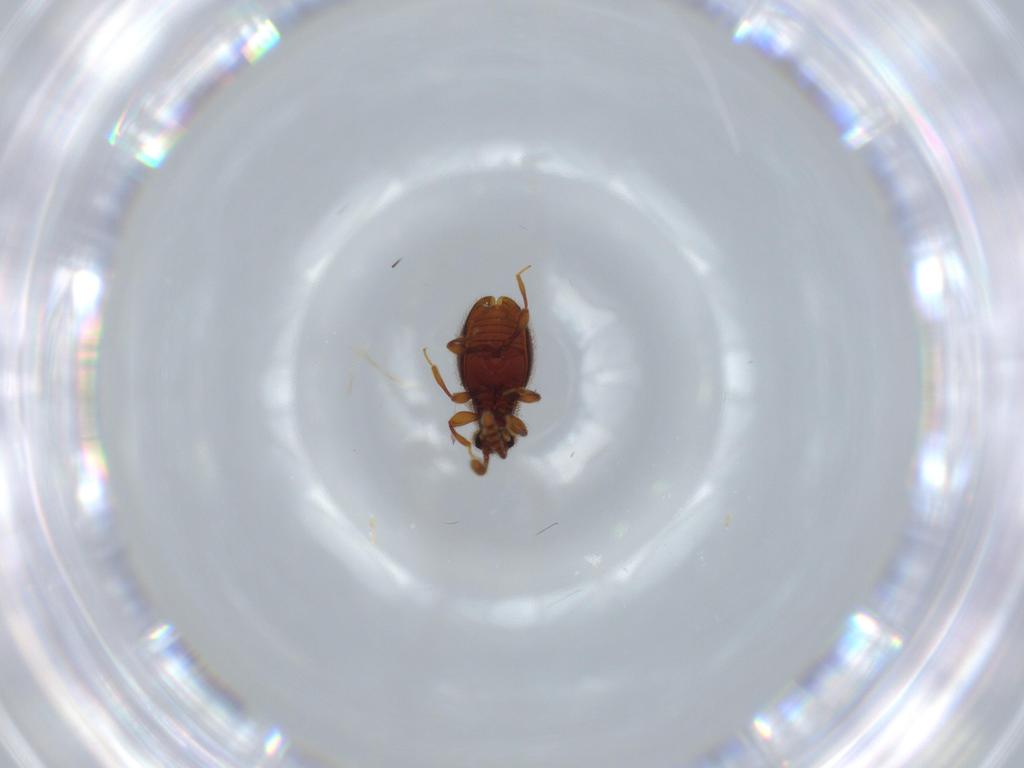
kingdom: Animalia
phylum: Arthropoda
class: Insecta
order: Coleoptera
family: Staphylinidae
